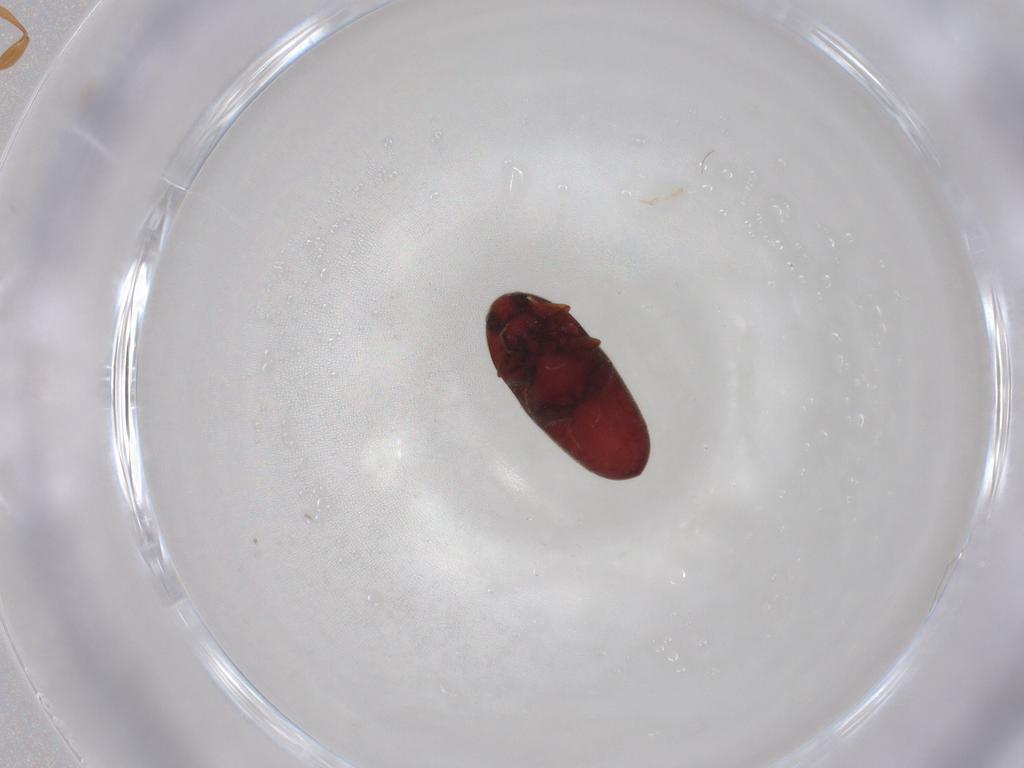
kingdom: Animalia
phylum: Arthropoda
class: Insecta
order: Coleoptera
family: Throscidae
